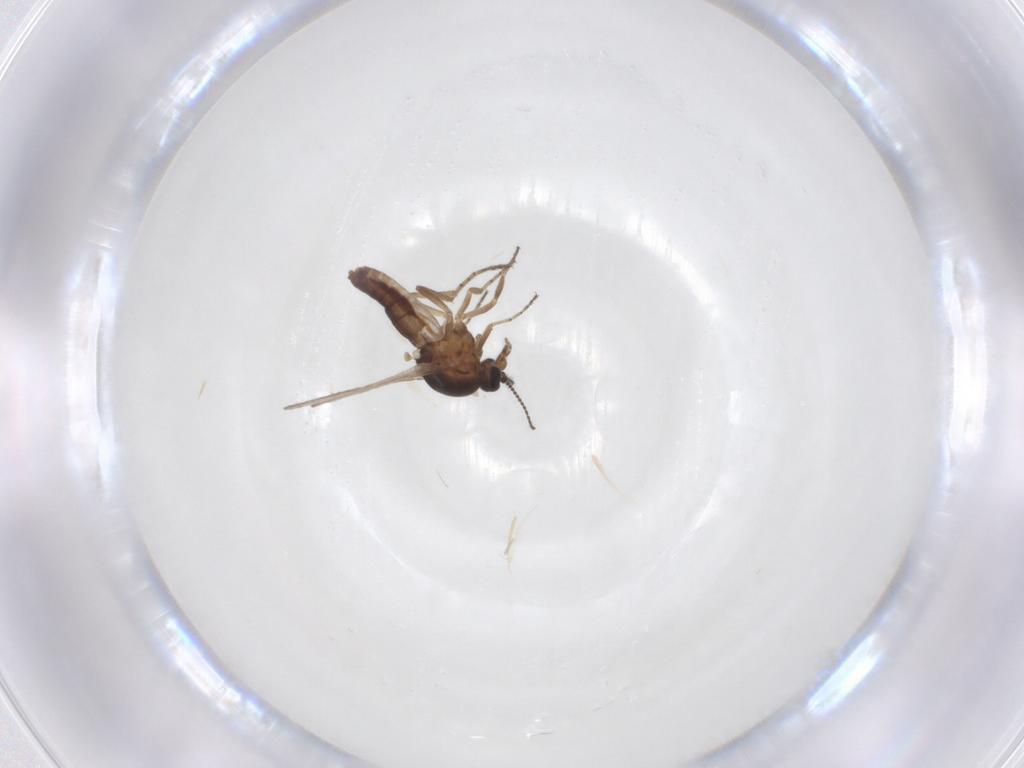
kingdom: Animalia
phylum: Arthropoda
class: Insecta
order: Diptera
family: Ceratopogonidae
